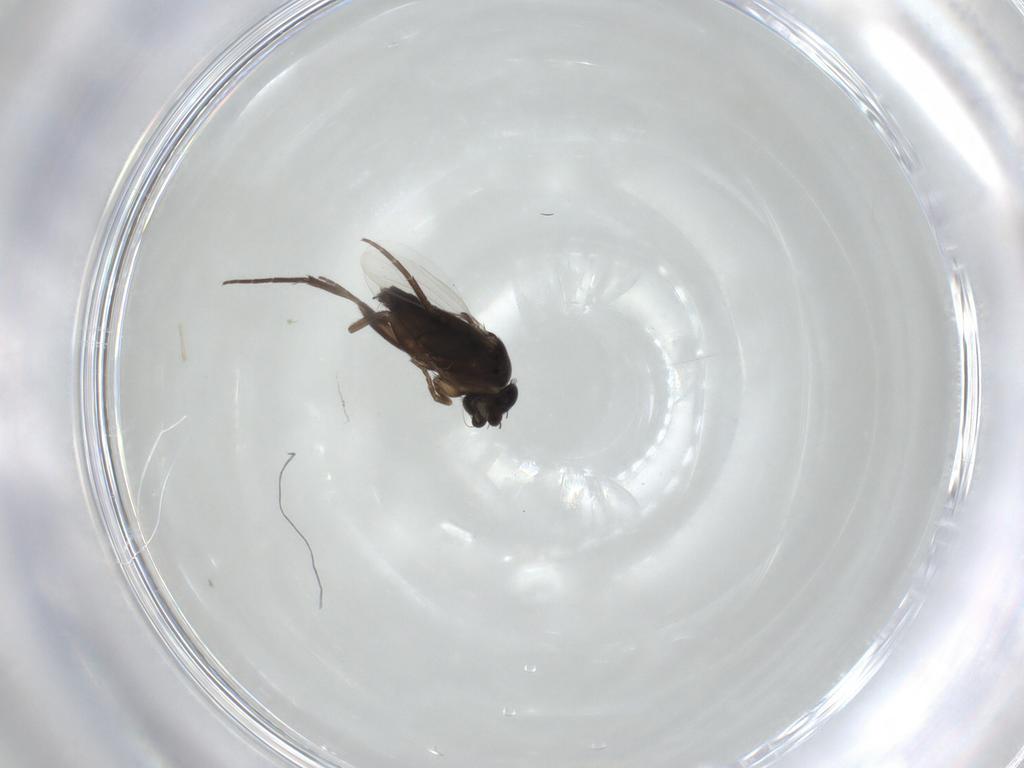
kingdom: Animalia
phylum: Arthropoda
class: Insecta
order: Diptera
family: Phoridae
